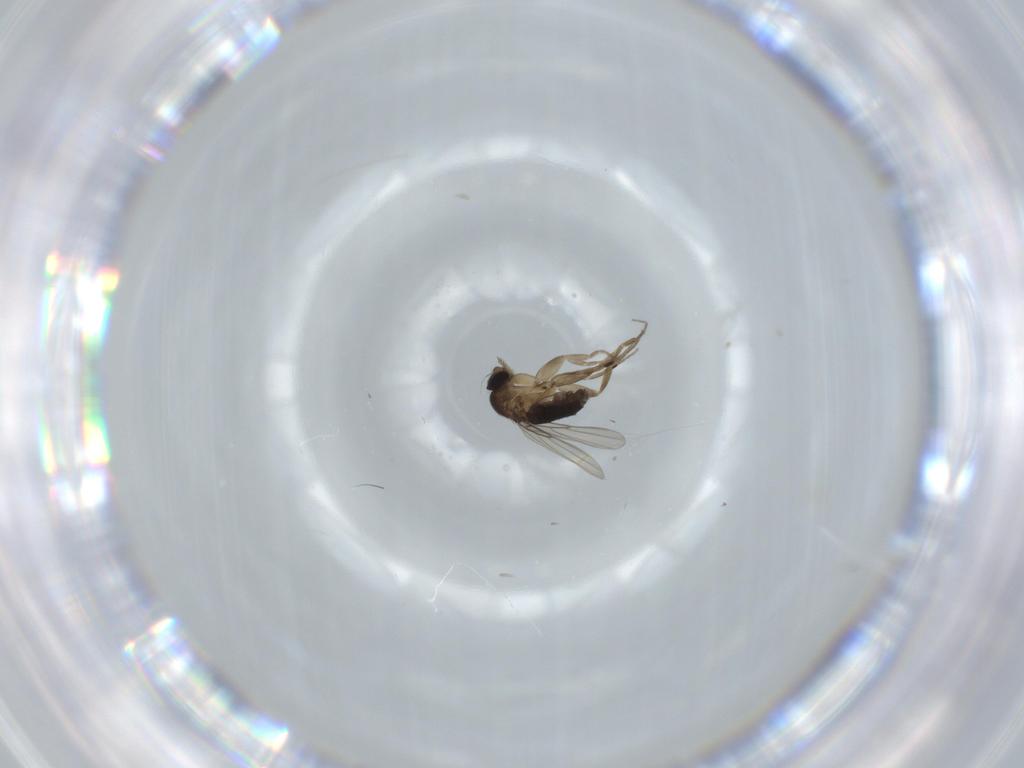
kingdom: Animalia
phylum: Arthropoda
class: Insecta
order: Diptera
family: Phoridae
